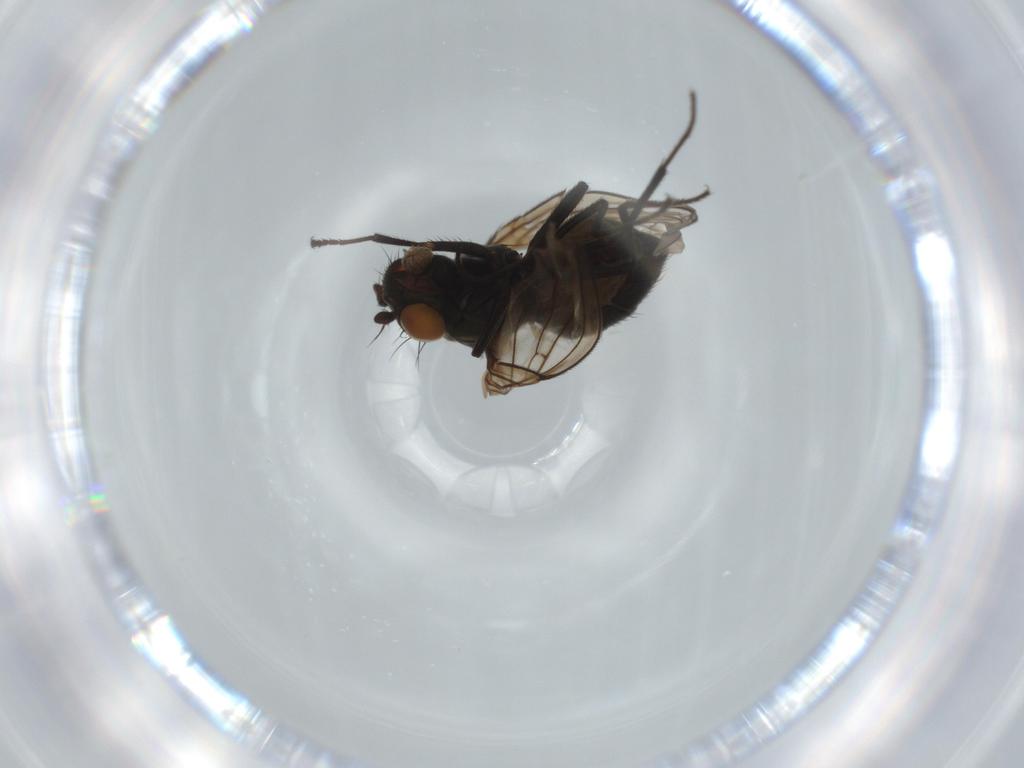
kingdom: Animalia
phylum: Arthropoda
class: Insecta
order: Diptera
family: Ephydridae
